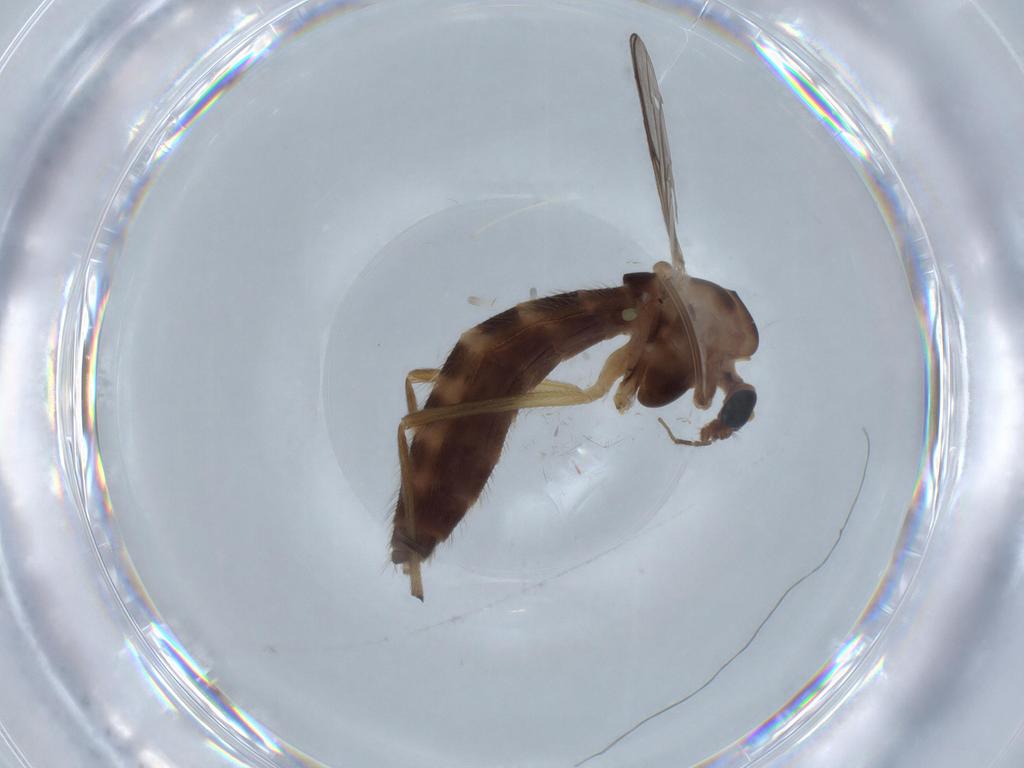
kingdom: Animalia
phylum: Arthropoda
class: Insecta
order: Diptera
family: Chironomidae
